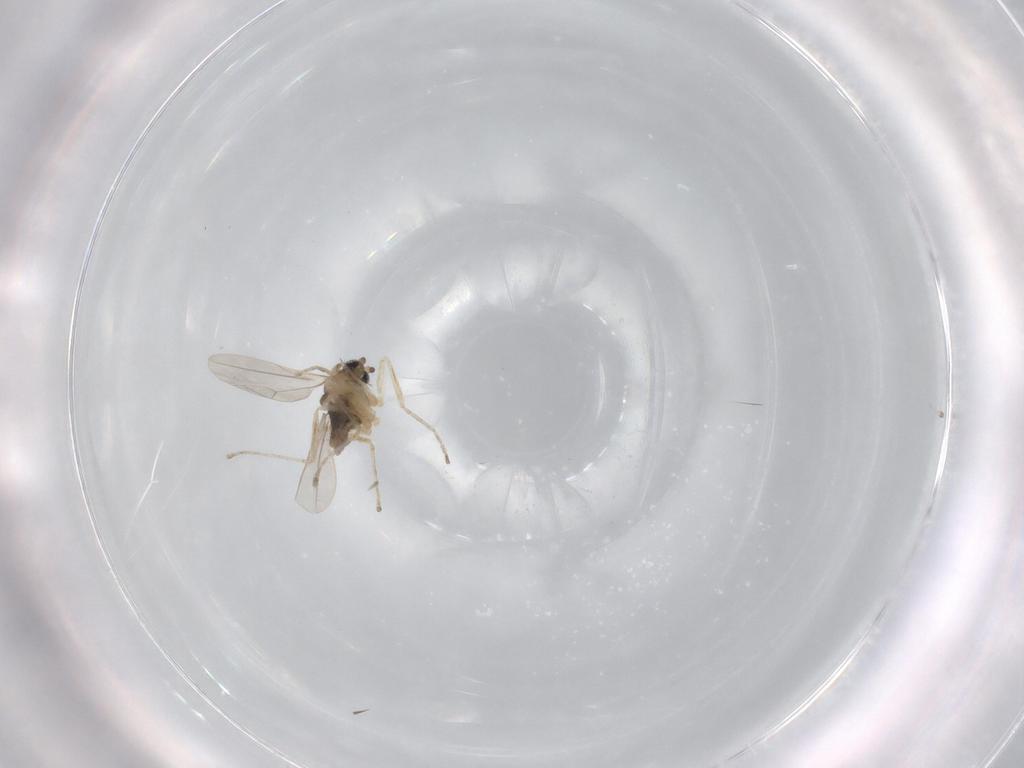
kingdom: Animalia
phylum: Arthropoda
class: Insecta
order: Diptera
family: Cecidomyiidae
